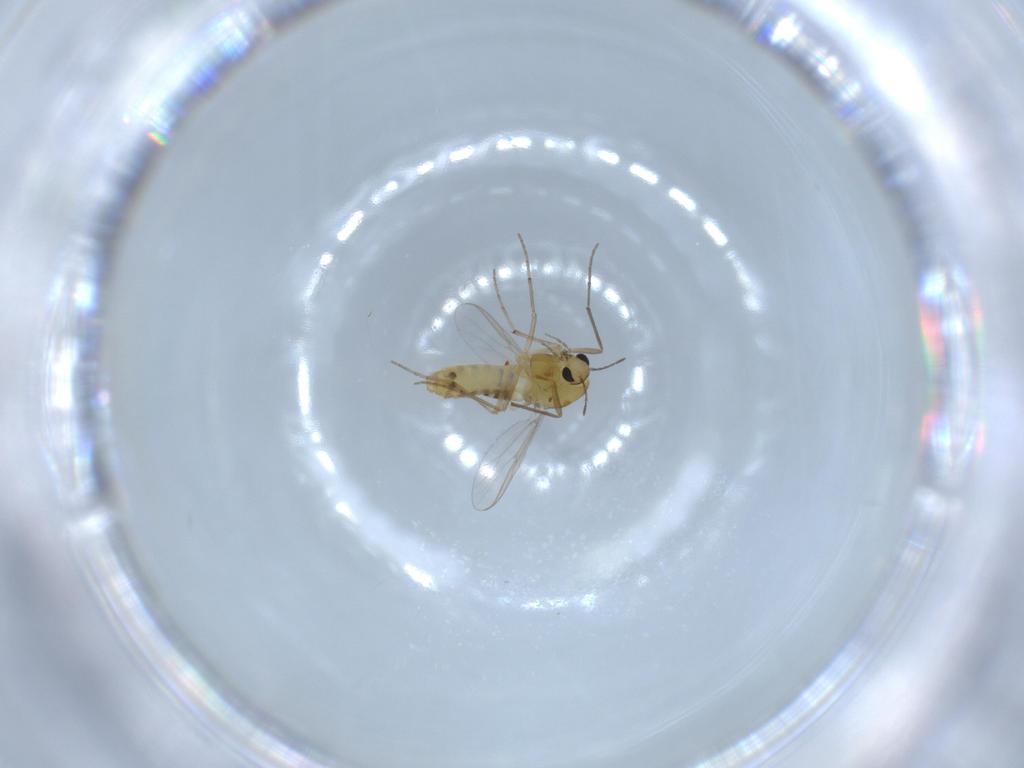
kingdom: Animalia
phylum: Arthropoda
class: Insecta
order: Diptera
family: Chironomidae
